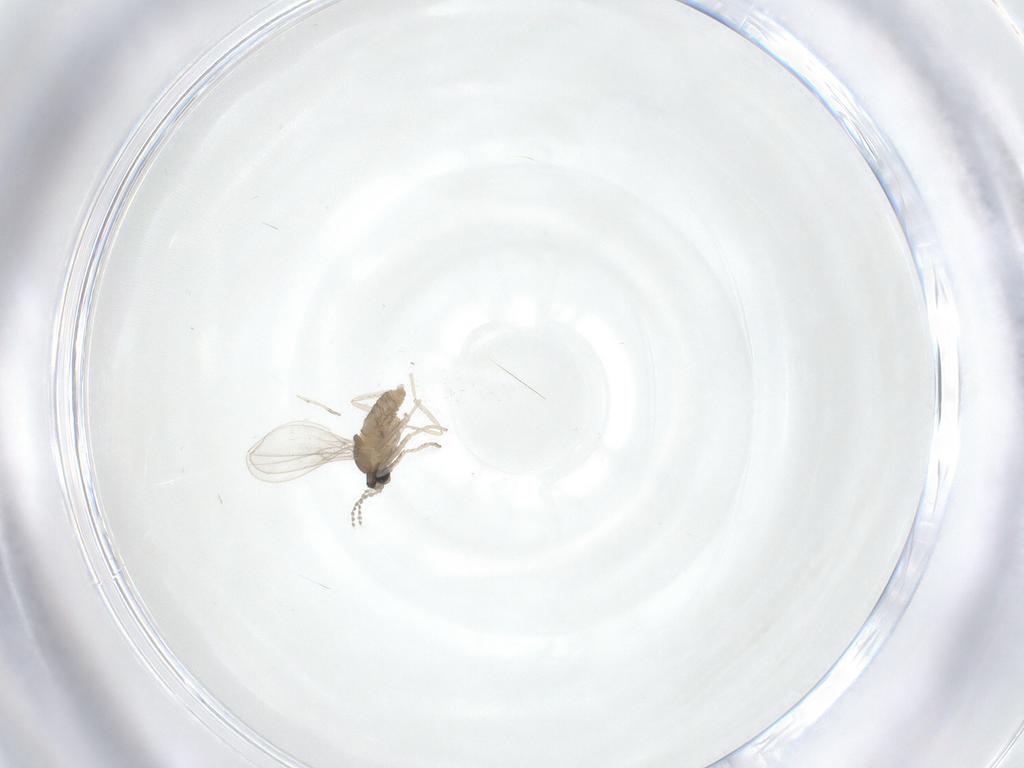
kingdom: Animalia
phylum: Arthropoda
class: Insecta
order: Diptera
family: Cecidomyiidae
